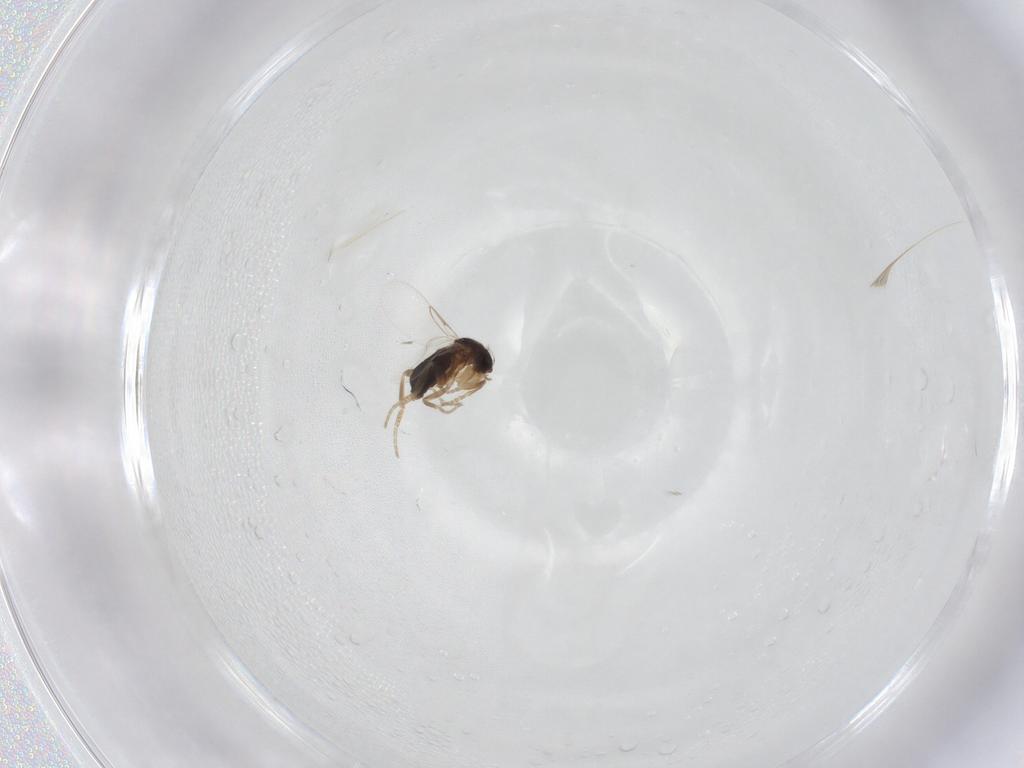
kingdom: Animalia
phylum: Arthropoda
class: Insecta
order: Diptera
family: Phoridae
